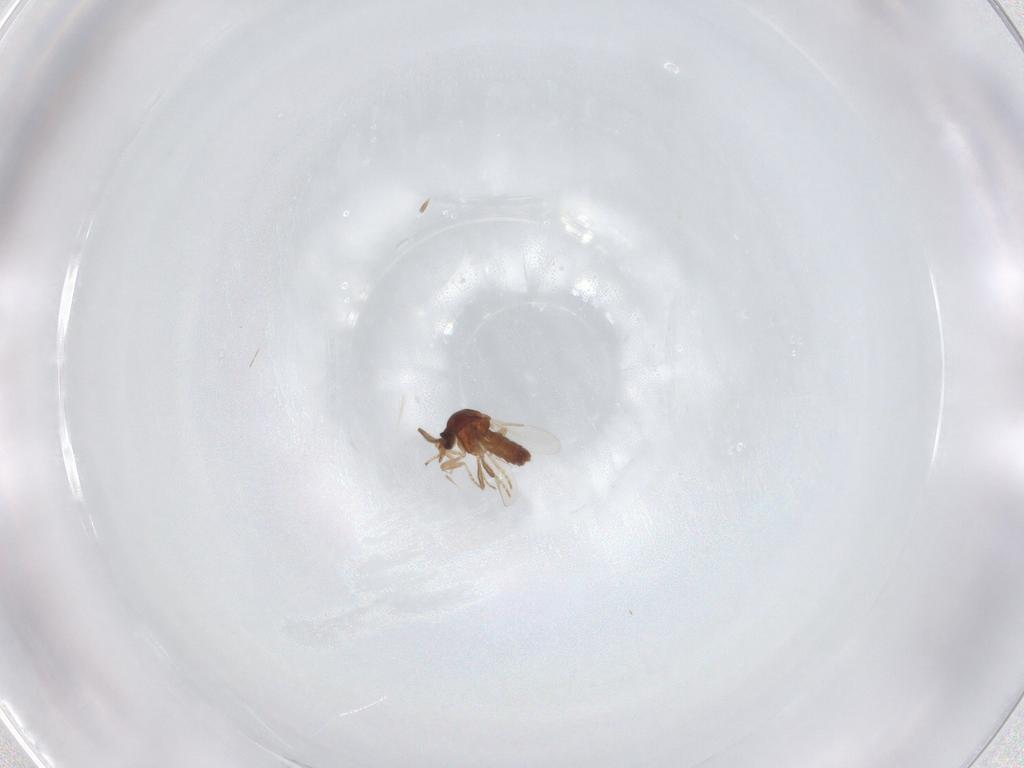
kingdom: Animalia
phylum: Arthropoda
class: Insecta
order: Diptera
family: Ceratopogonidae
